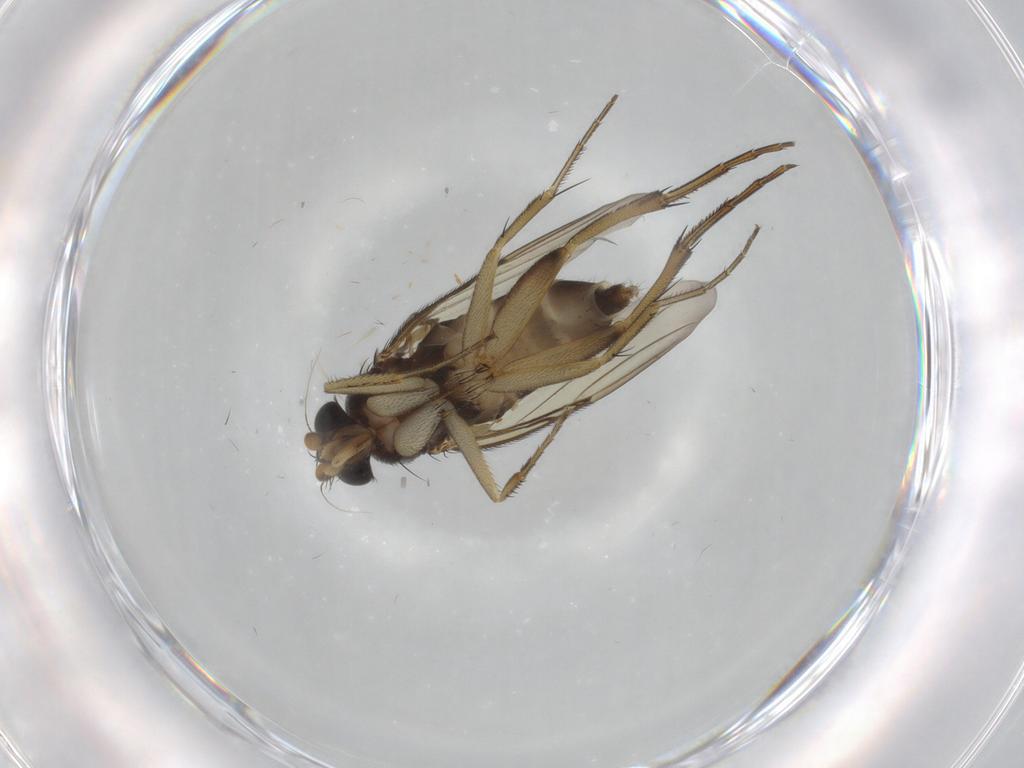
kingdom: Animalia
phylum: Arthropoda
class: Insecta
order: Diptera
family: Phoridae
